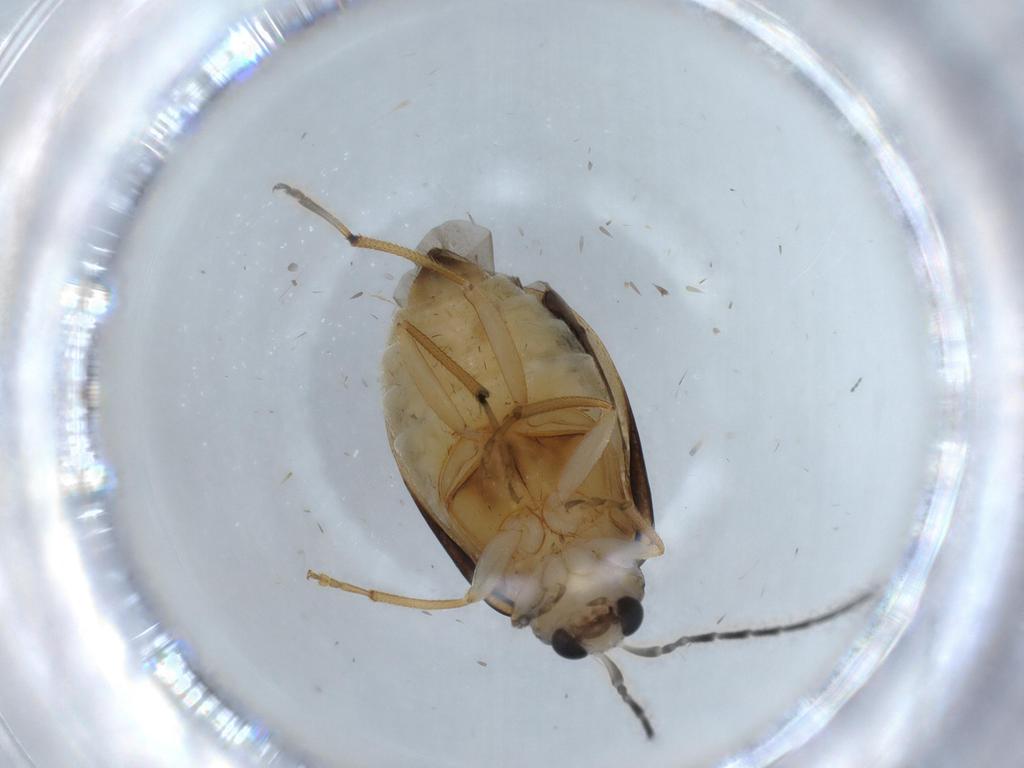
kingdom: Animalia
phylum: Arthropoda
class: Insecta
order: Coleoptera
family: Chrysomelidae
